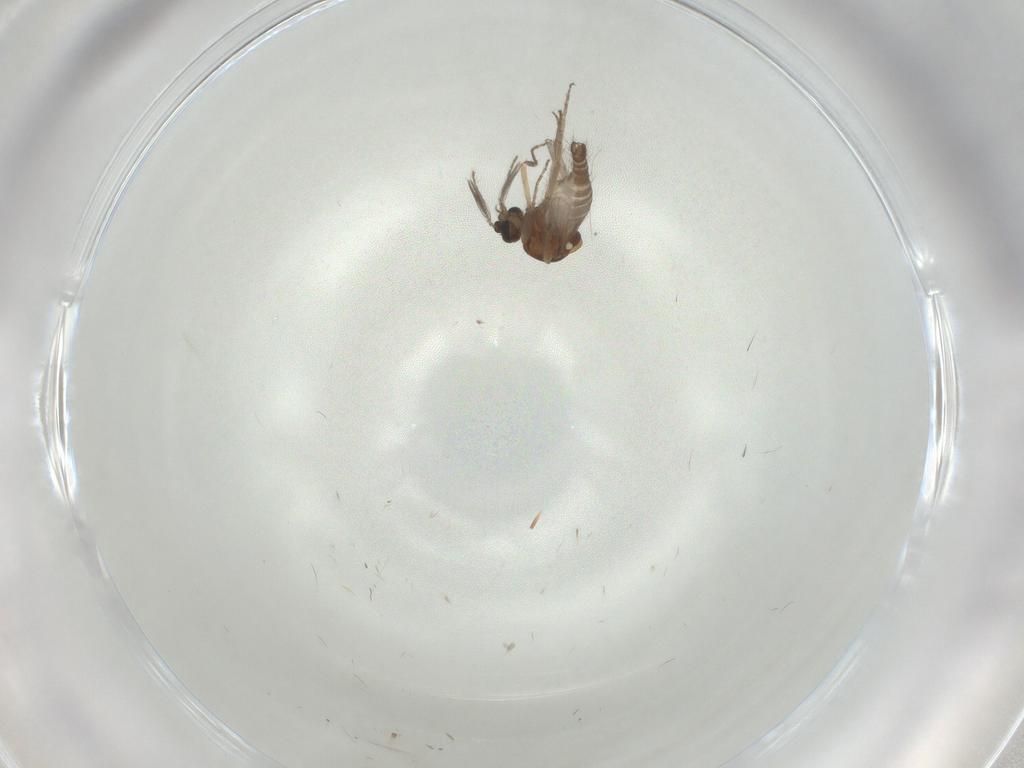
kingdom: Animalia
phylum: Arthropoda
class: Insecta
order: Diptera
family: Ceratopogonidae
